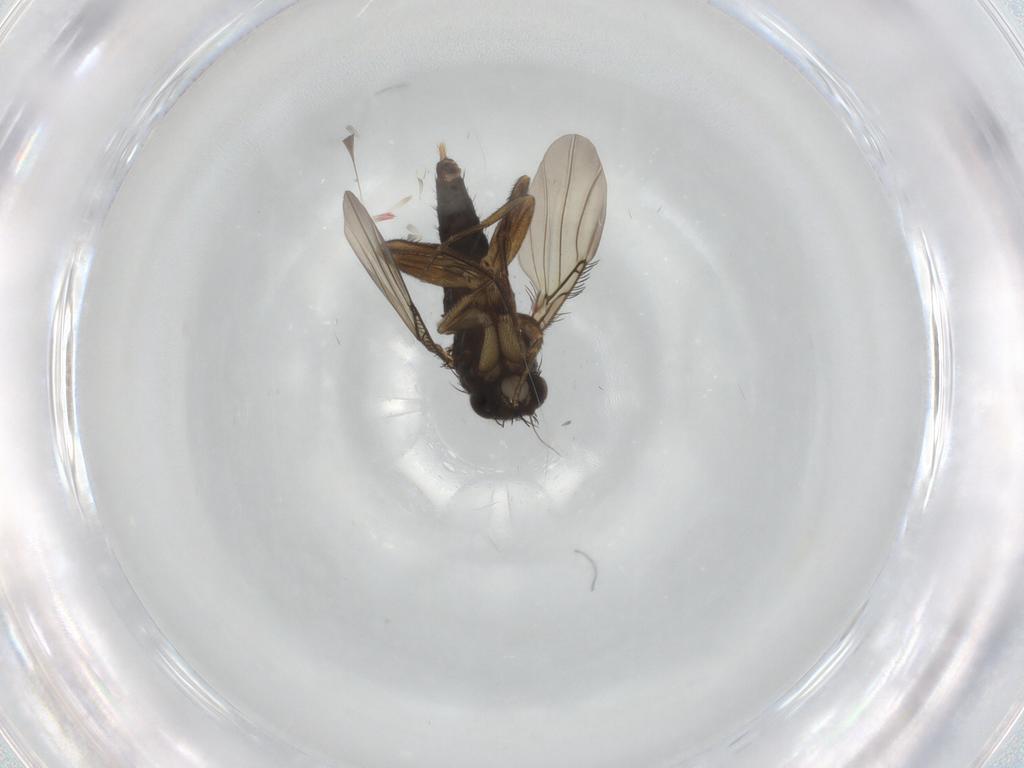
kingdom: Animalia
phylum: Arthropoda
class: Insecta
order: Diptera
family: Phoridae
